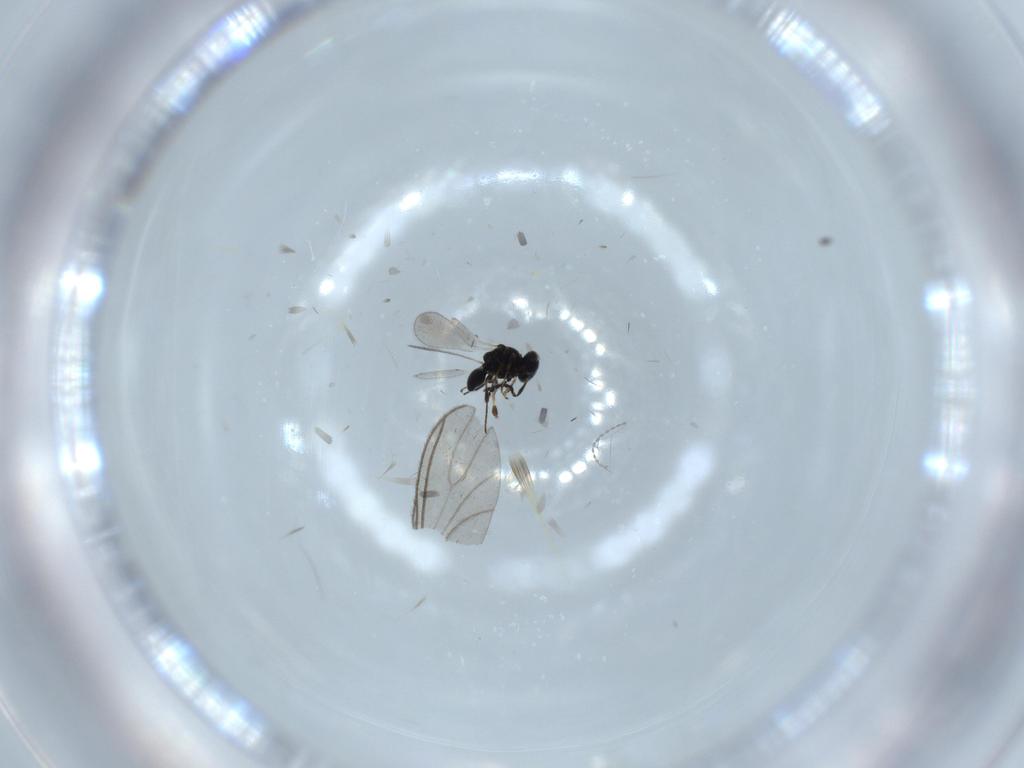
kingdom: Animalia
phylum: Arthropoda
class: Insecta
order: Hymenoptera
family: Platygastridae
